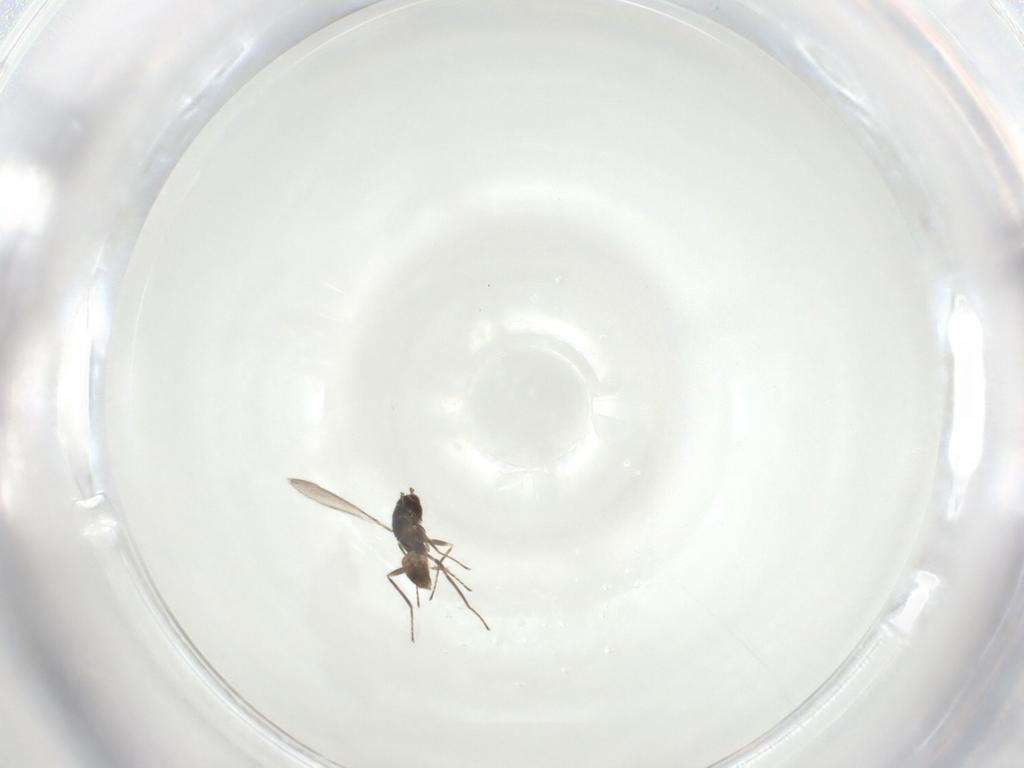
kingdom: Animalia
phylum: Arthropoda
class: Insecta
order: Hymenoptera
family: Mymaridae
